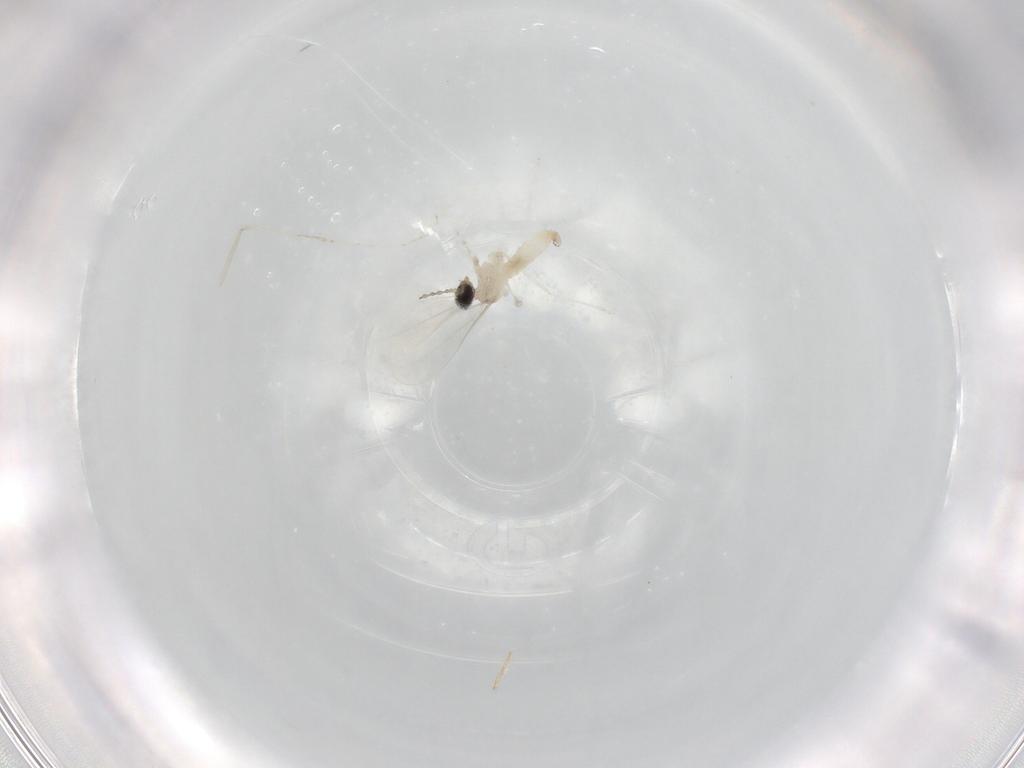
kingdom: Animalia
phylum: Arthropoda
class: Insecta
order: Diptera
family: Cecidomyiidae
